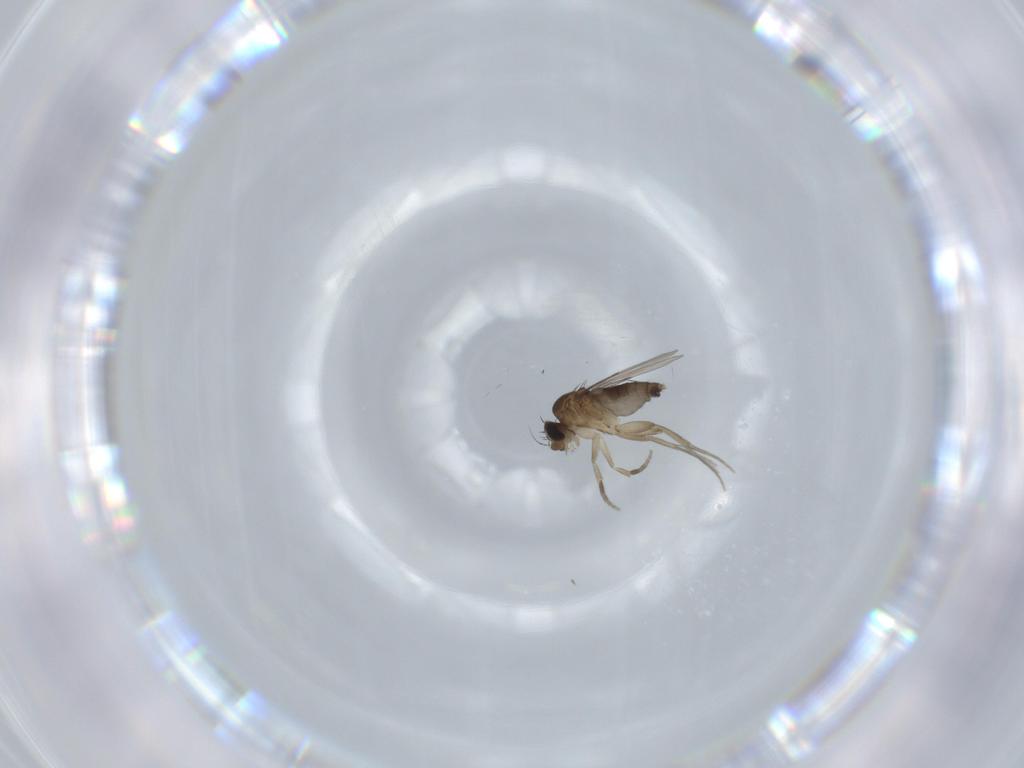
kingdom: Animalia
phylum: Arthropoda
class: Insecta
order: Diptera
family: Phoridae
